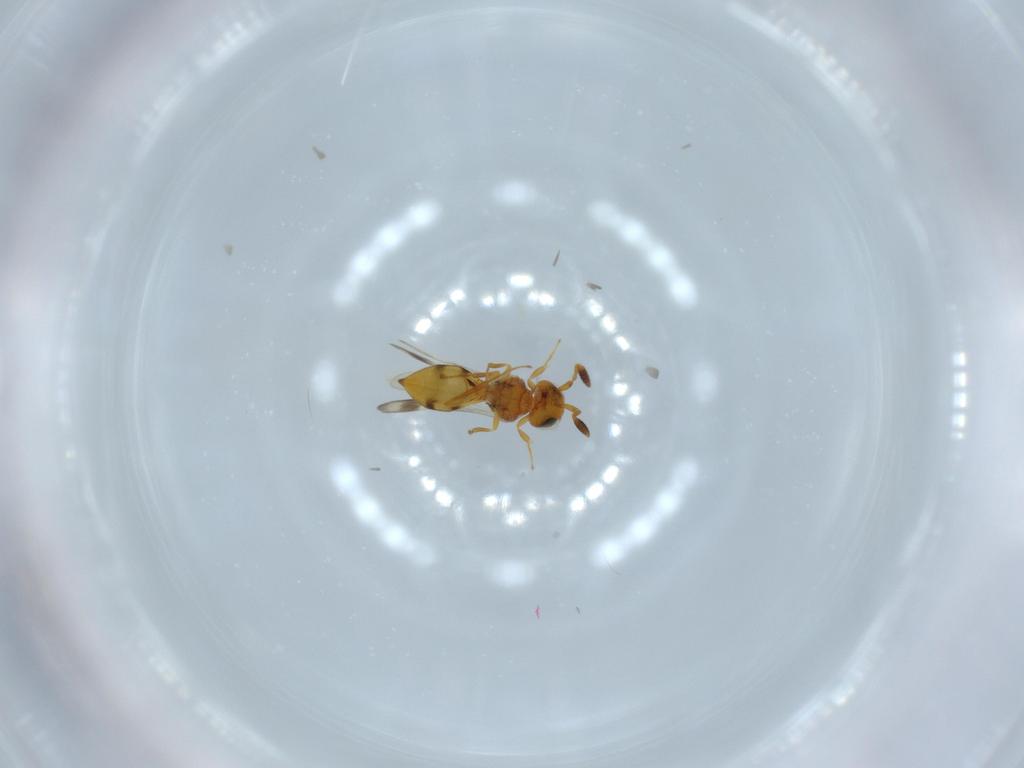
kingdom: Animalia
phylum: Arthropoda
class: Insecta
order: Hymenoptera
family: Scelionidae
